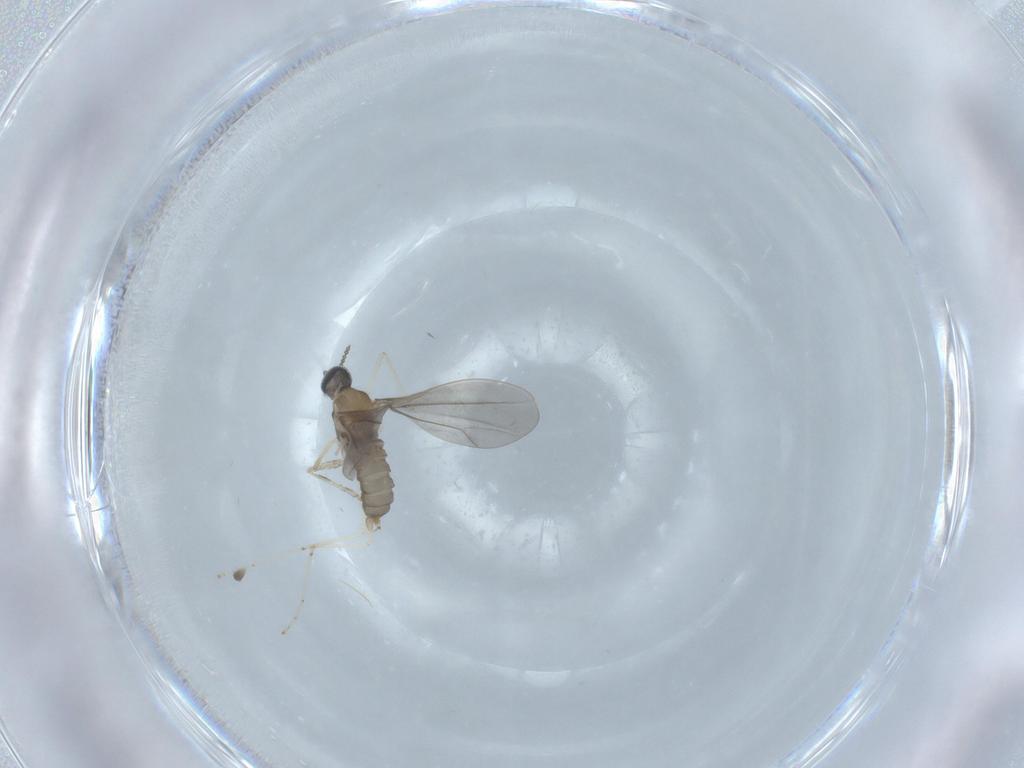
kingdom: Animalia
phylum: Arthropoda
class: Insecta
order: Diptera
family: Cecidomyiidae
